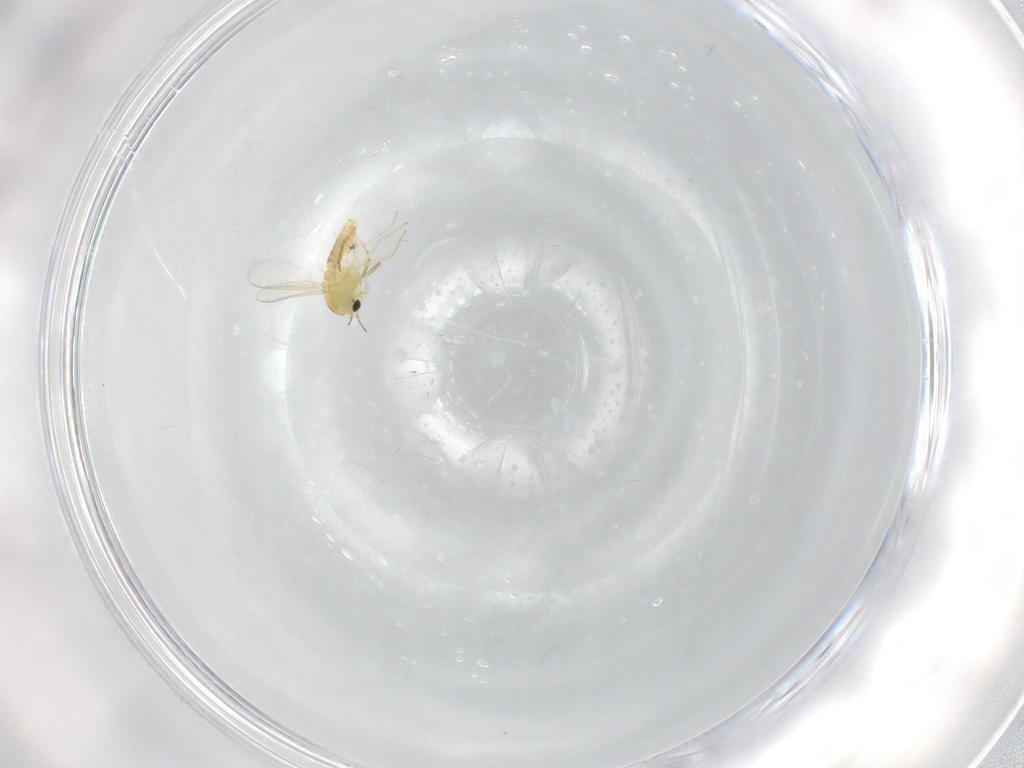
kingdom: Animalia
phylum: Arthropoda
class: Insecta
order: Diptera
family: Chironomidae
